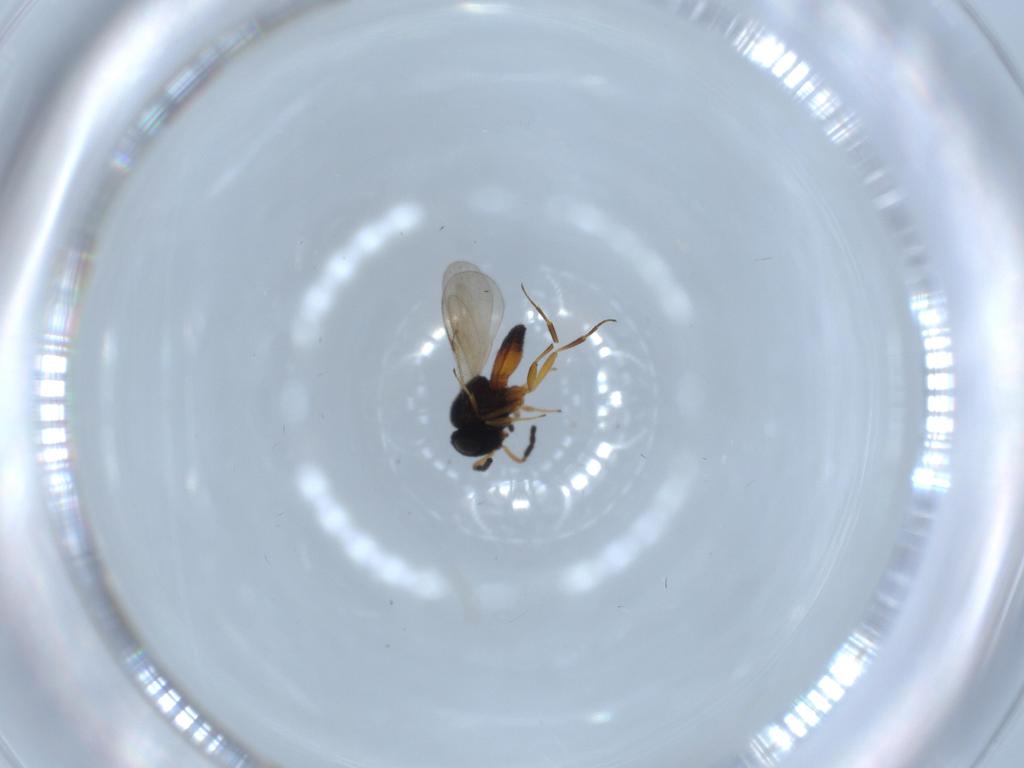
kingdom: Animalia
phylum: Arthropoda
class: Insecta
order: Hymenoptera
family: Scelionidae
